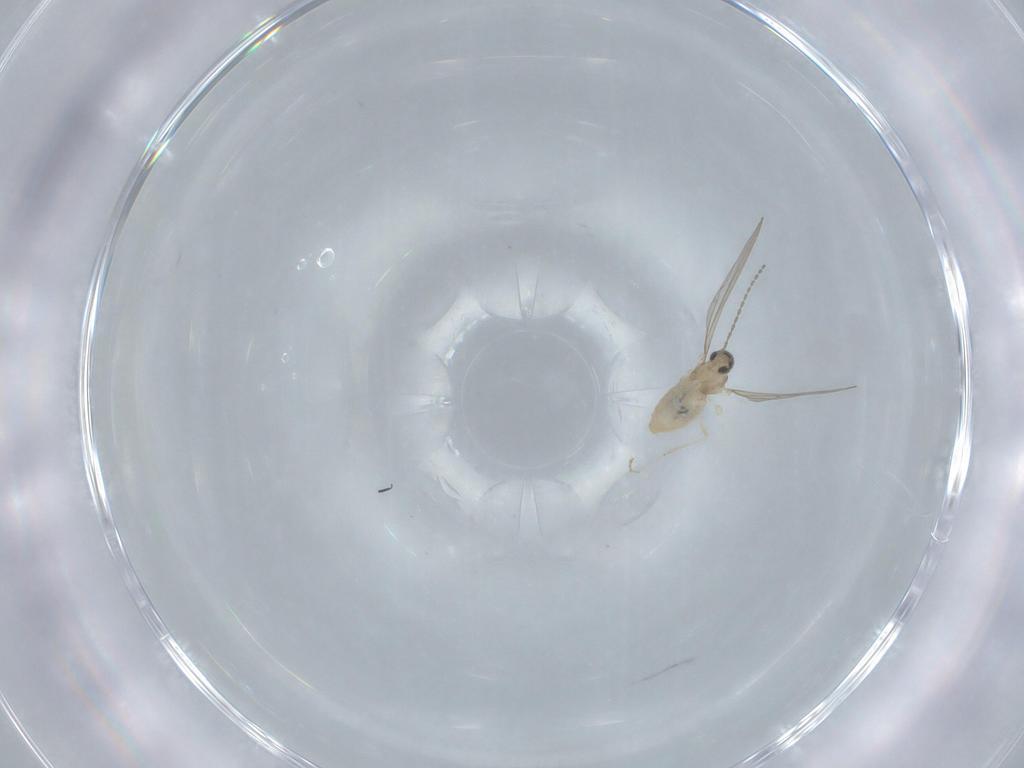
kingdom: Animalia
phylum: Arthropoda
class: Insecta
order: Diptera
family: Cecidomyiidae
